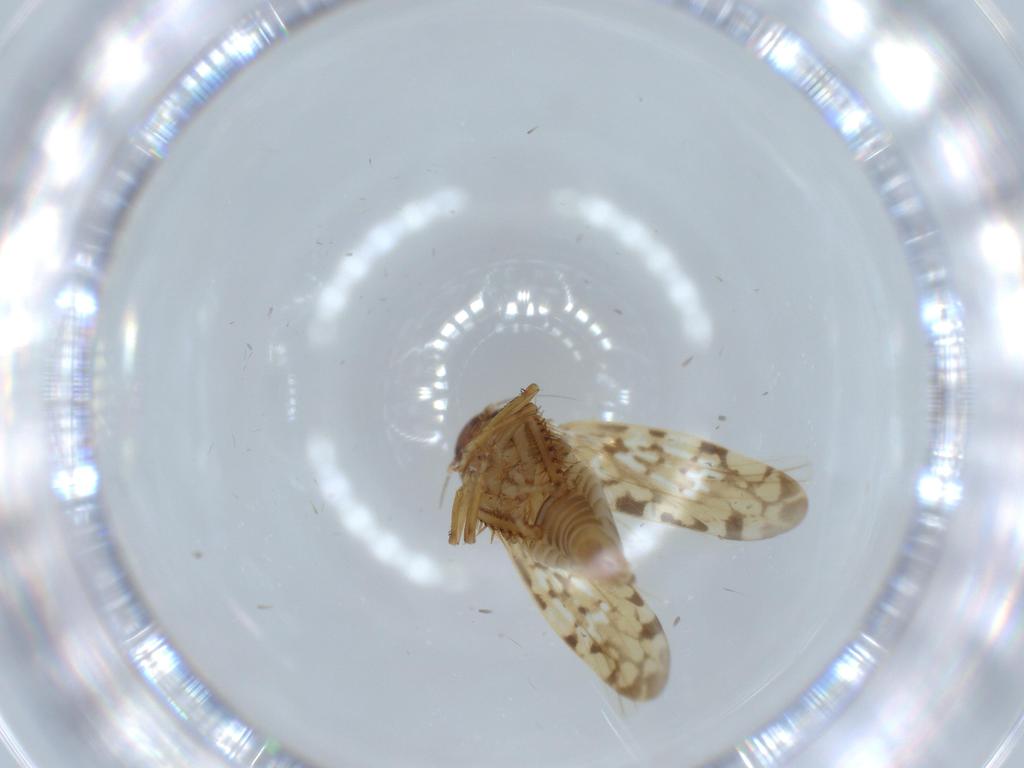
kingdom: Animalia
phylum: Arthropoda
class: Insecta
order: Hemiptera
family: Cicadellidae
